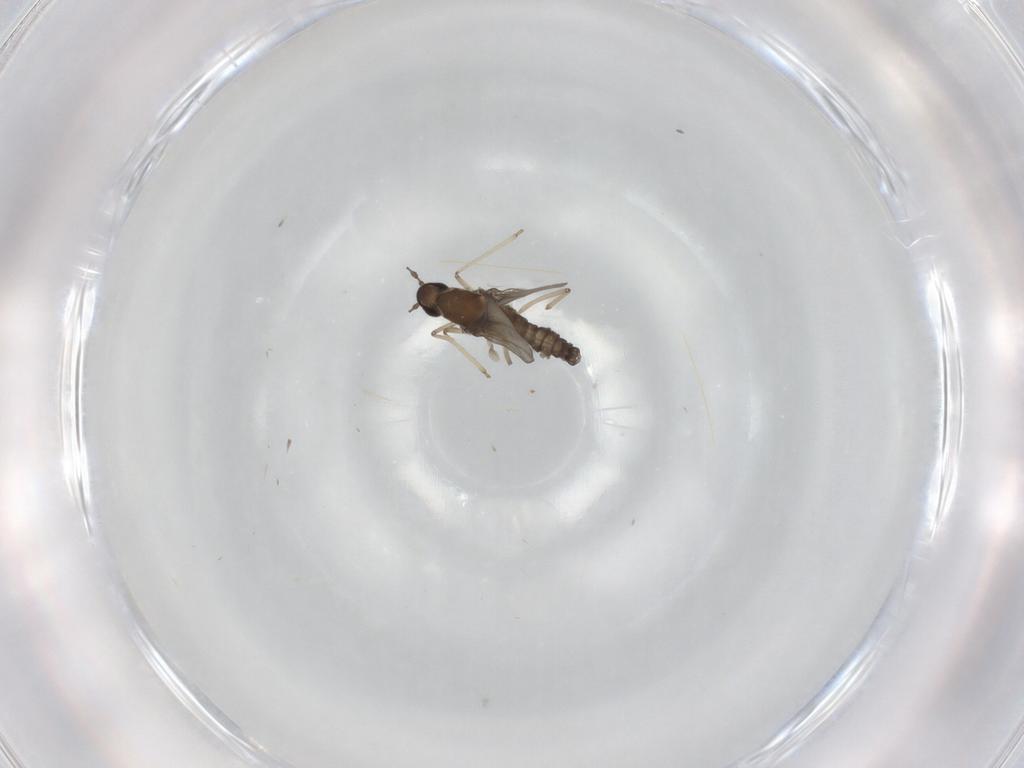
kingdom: Animalia
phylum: Arthropoda
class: Insecta
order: Diptera
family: Cecidomyiidae
